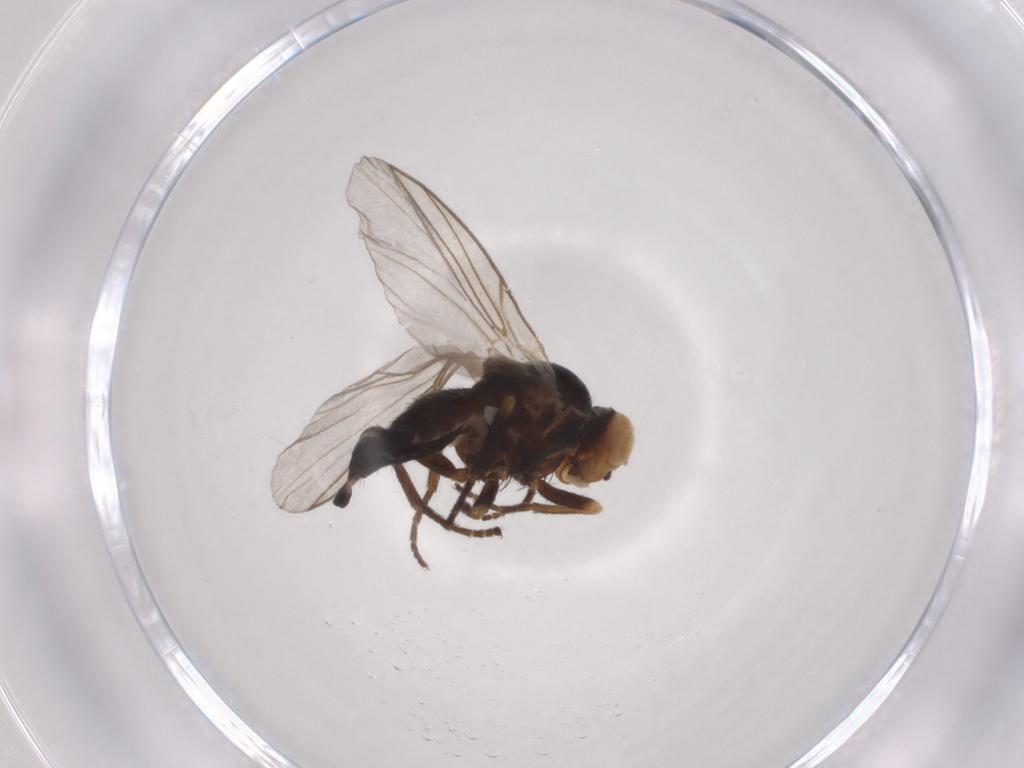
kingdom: Animalia
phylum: Arthropoda
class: Insecta
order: Diptera
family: Agromyzidae
